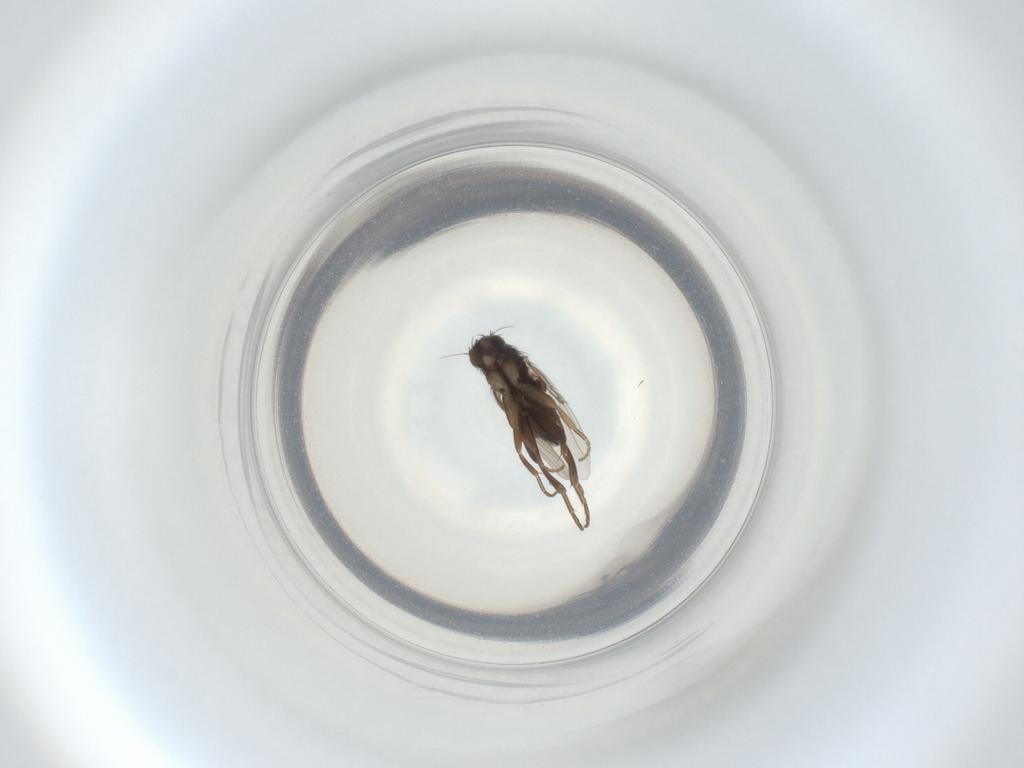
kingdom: Animalia
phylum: Arthropoda
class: Insecta
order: Diptera
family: Phoridae
